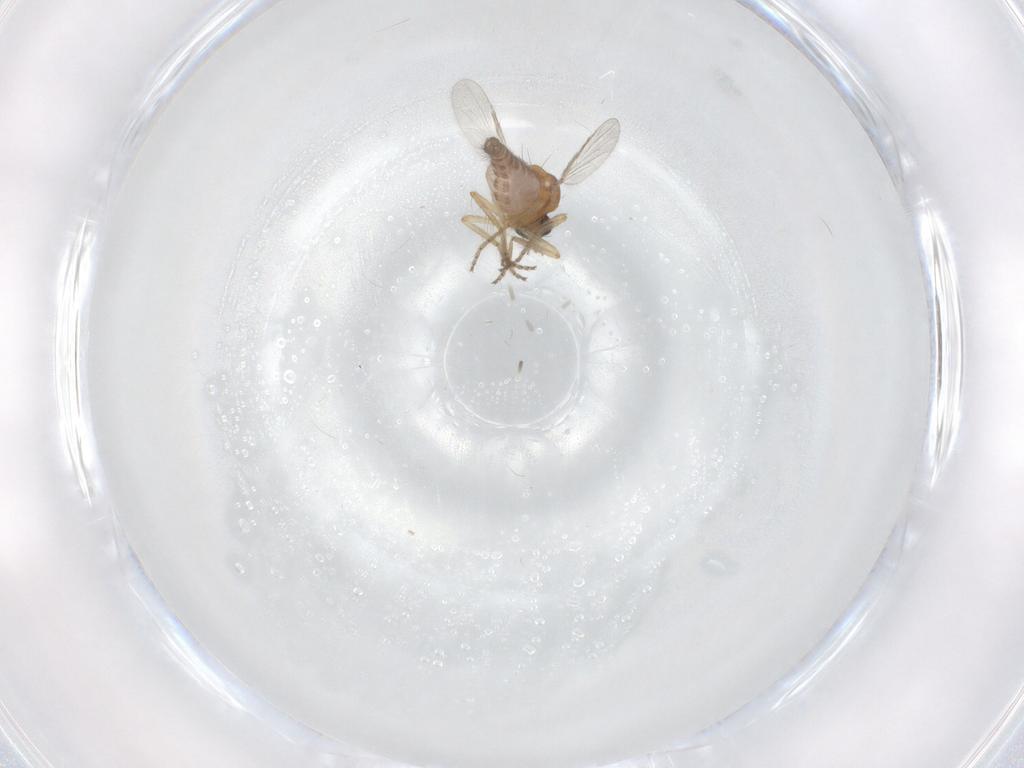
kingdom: Animalia
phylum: Arthropoda
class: Insecta
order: Diptera
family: Ceratopogonidae
